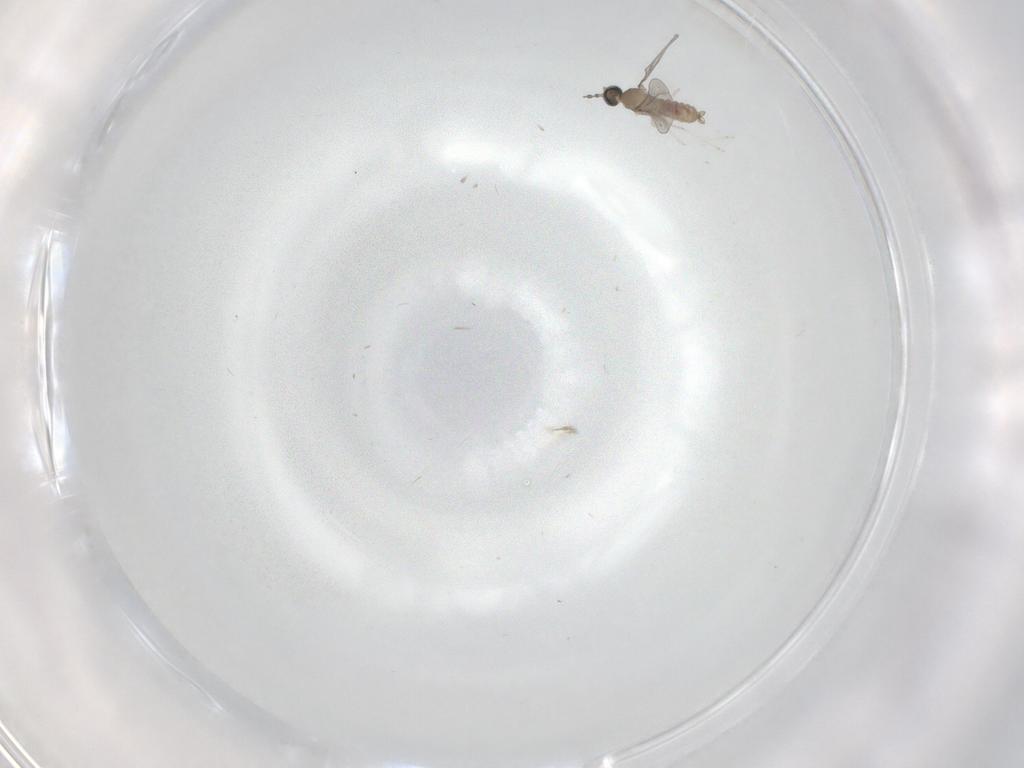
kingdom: Animalia
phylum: Arthropoda
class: Insecta
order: Diptera
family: Cecidomyiidae
